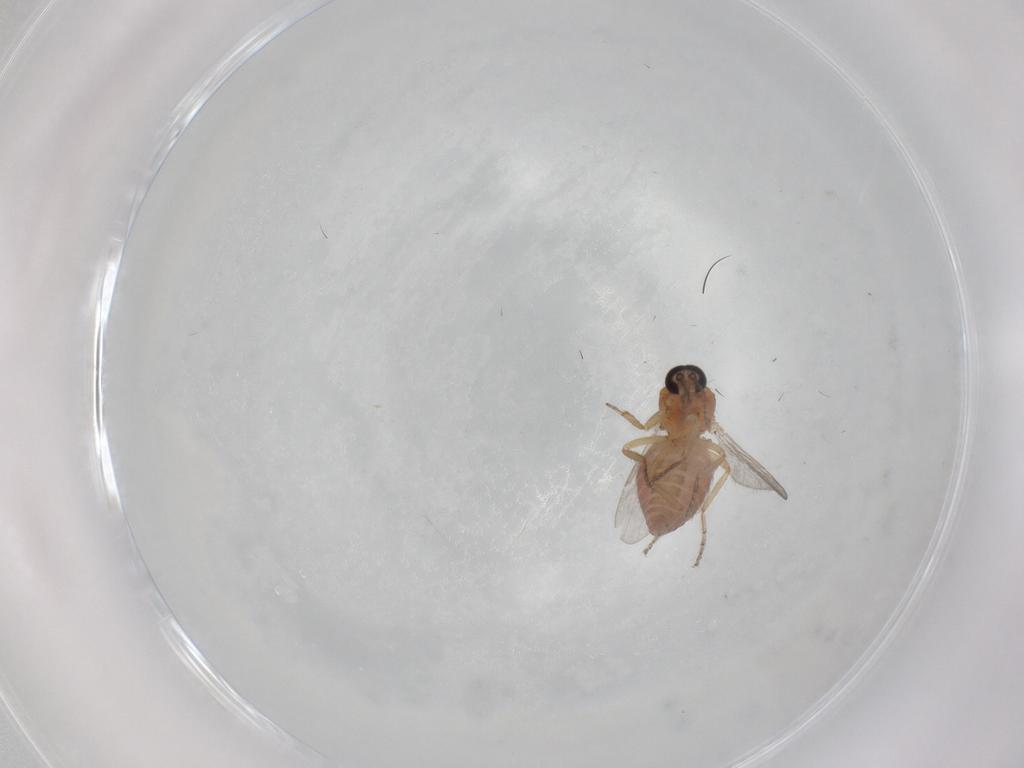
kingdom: Animalia
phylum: Arthropoda
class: Insecta
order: Diptera
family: Ceratopogonidae
